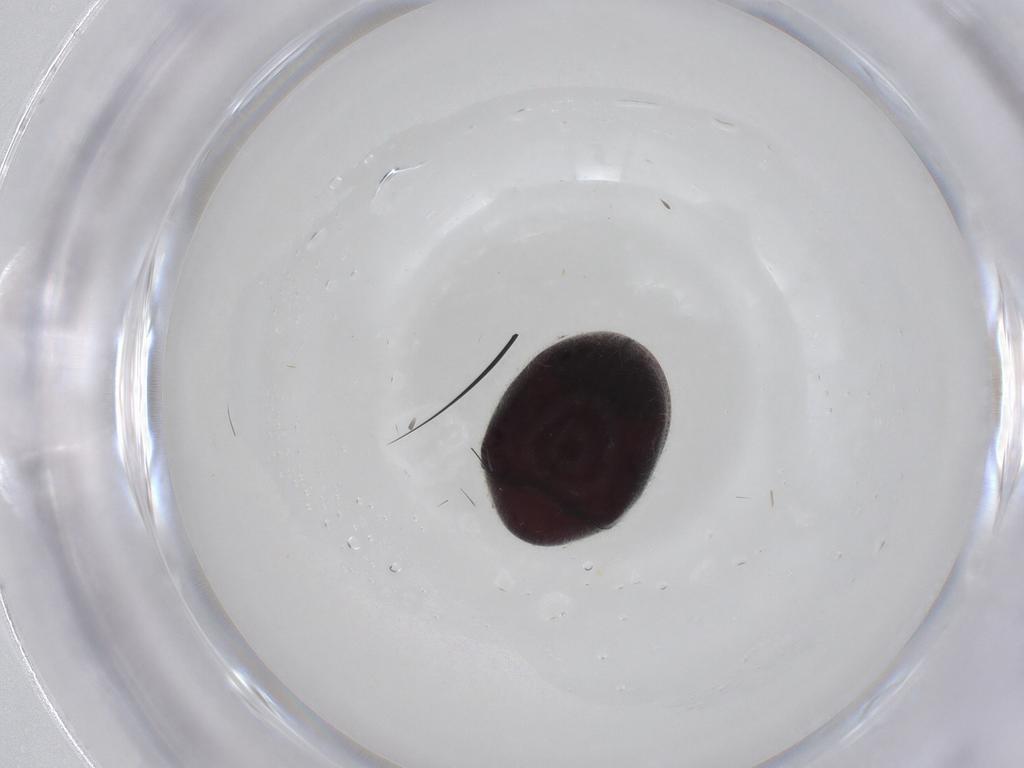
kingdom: Animalia
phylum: Arthropoda
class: Insecta
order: Coleoptera
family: Ptinidae
